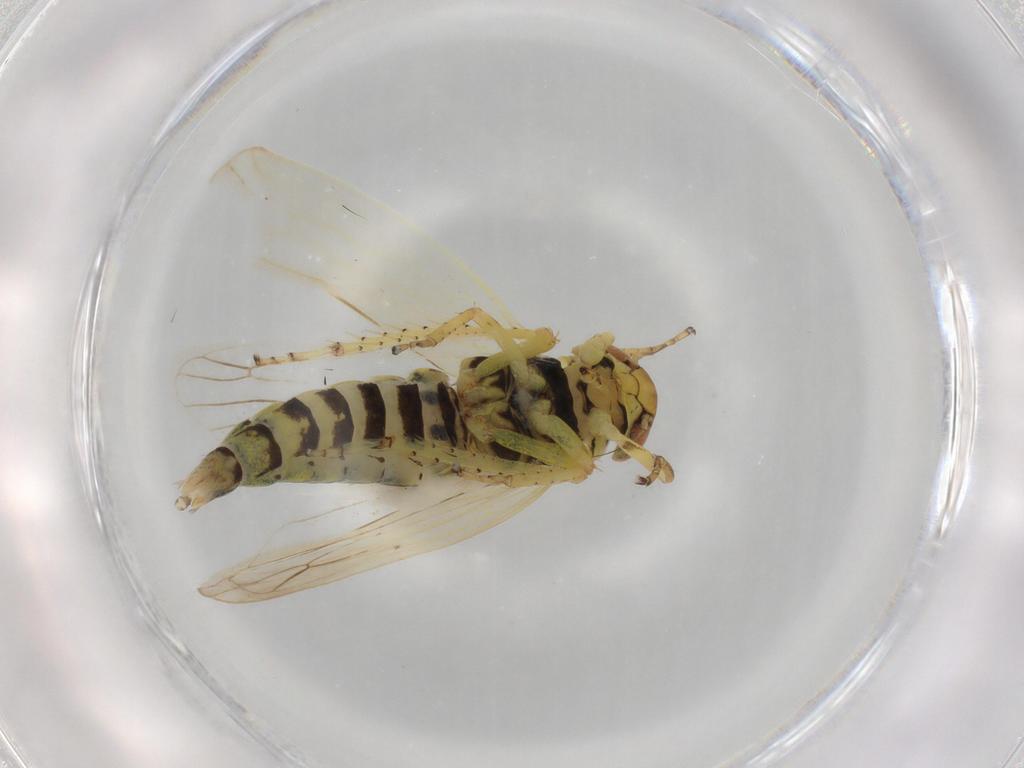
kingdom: Animalia
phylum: Arthropoda
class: Insecta
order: Hemiptera
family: Cicadellidae
